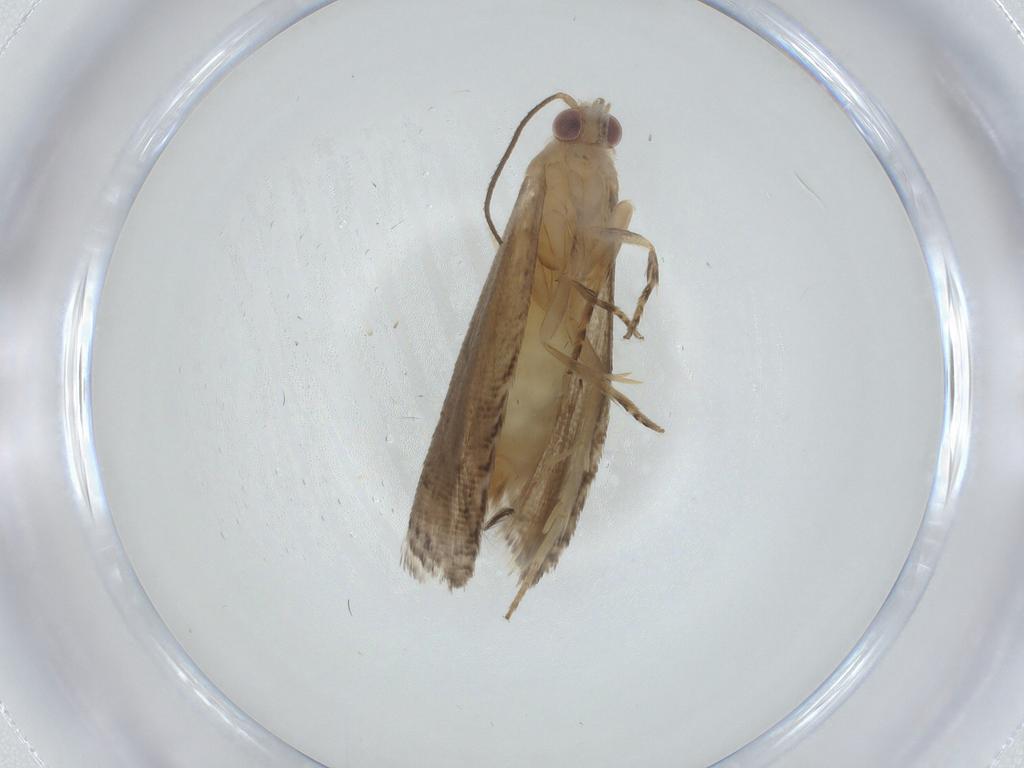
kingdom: Animalia
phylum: Arthropoda
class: Insecta
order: Lepidoptera
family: Tortricidae
